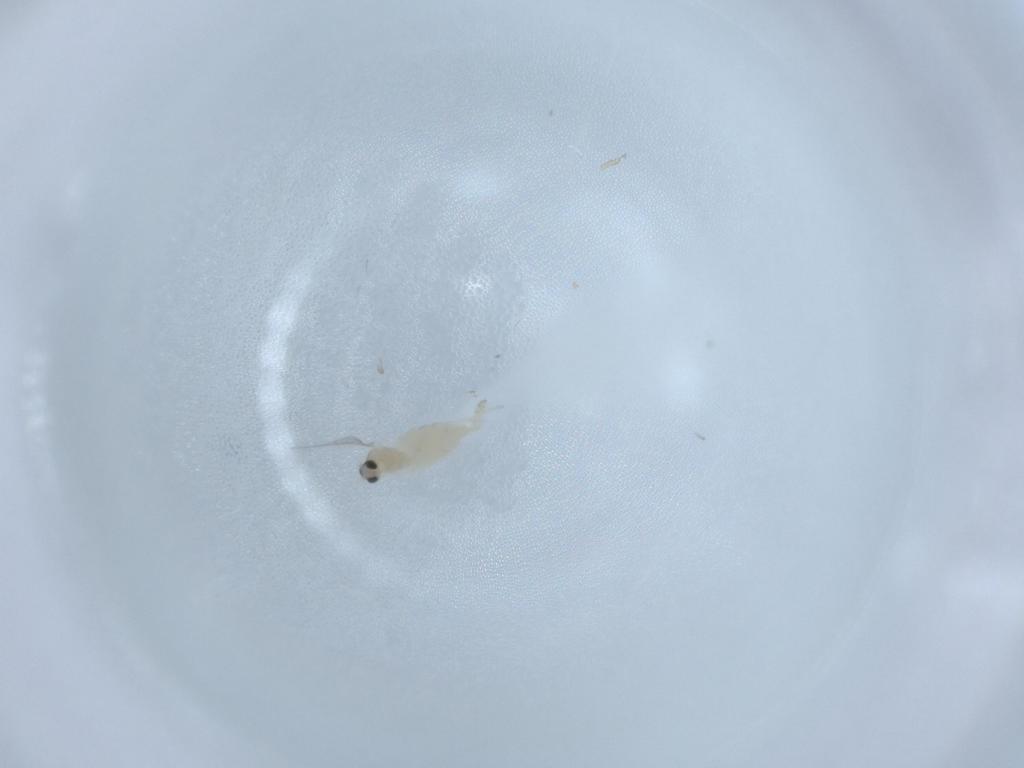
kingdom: Animalia
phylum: Arthropoda
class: Insecta
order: Diptera
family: Cecidomyiidae
